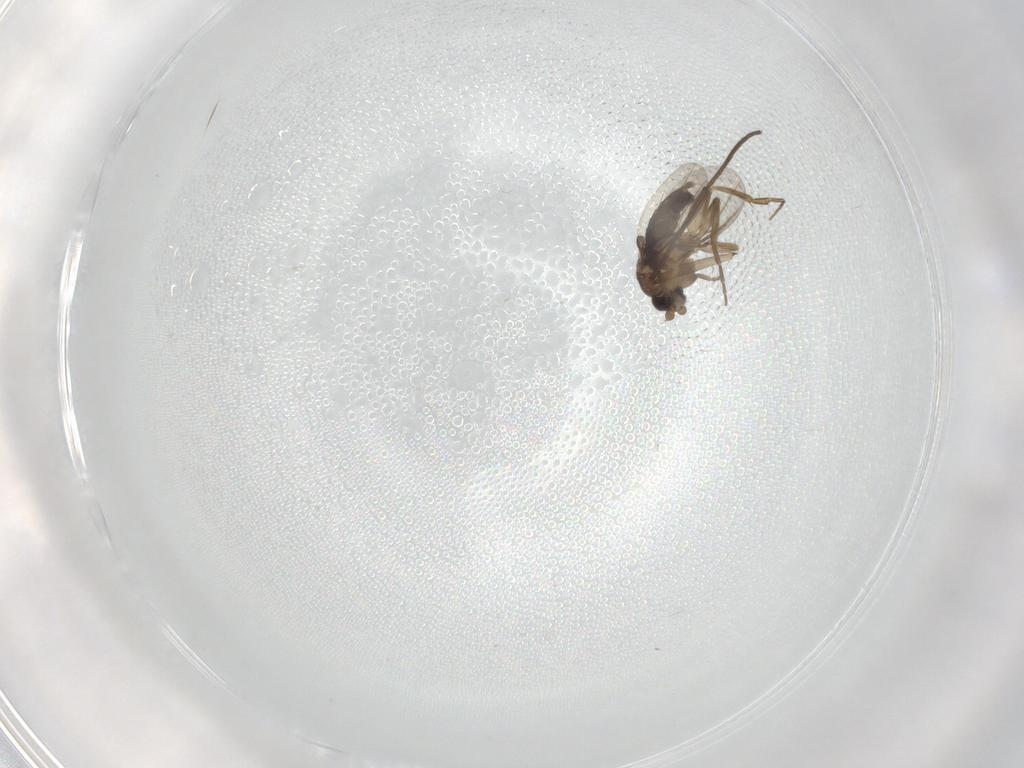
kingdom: Animalia
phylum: Arthropoda
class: Insecta
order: Diptera
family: Phoridae
